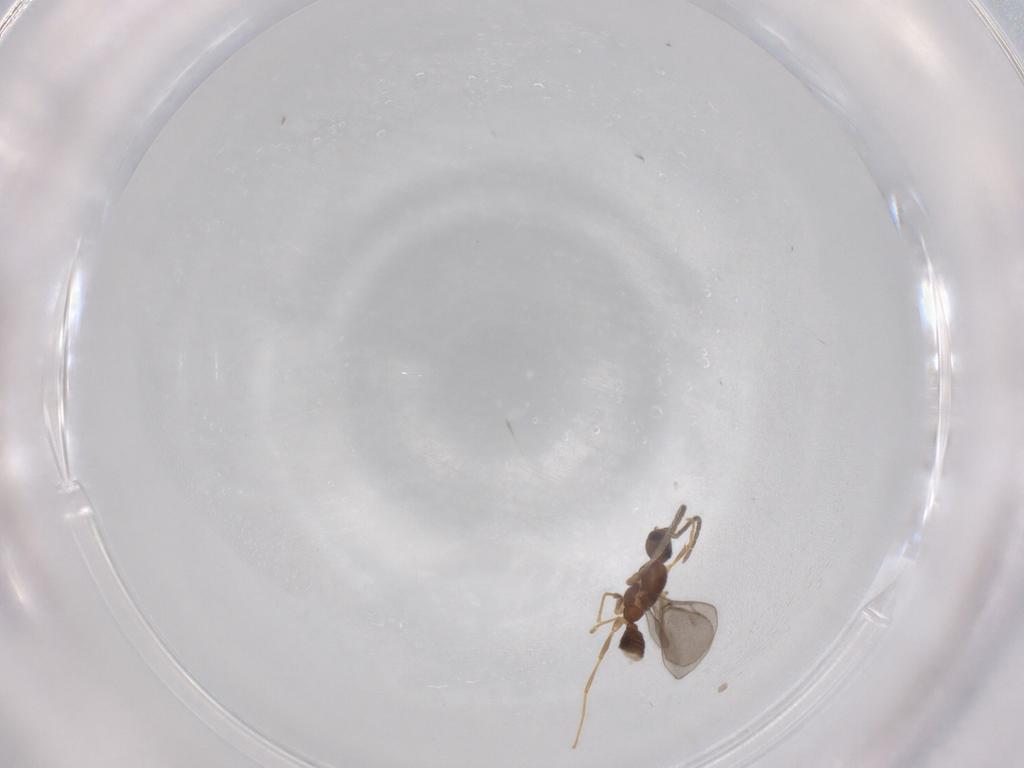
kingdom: Animalia
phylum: Arthropoda
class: Insecta
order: Hymenoptera
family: Formicidae
